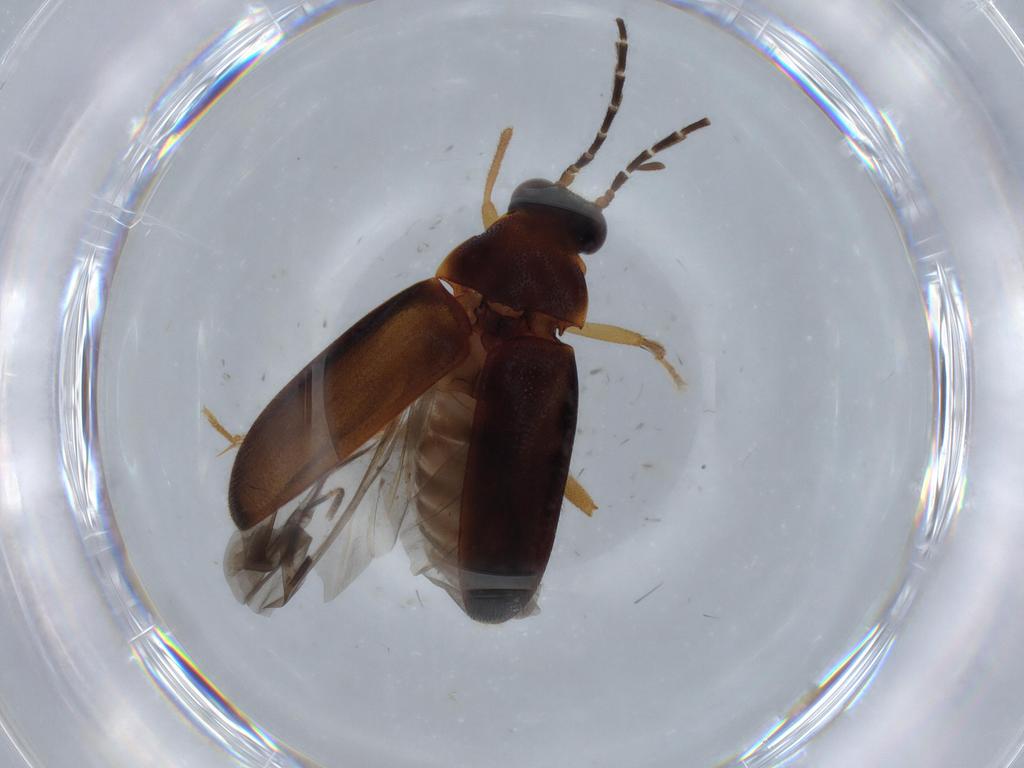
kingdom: Animalia
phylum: Arthropoda
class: Insecta
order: Coleoptera
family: Ptilodactylidae
